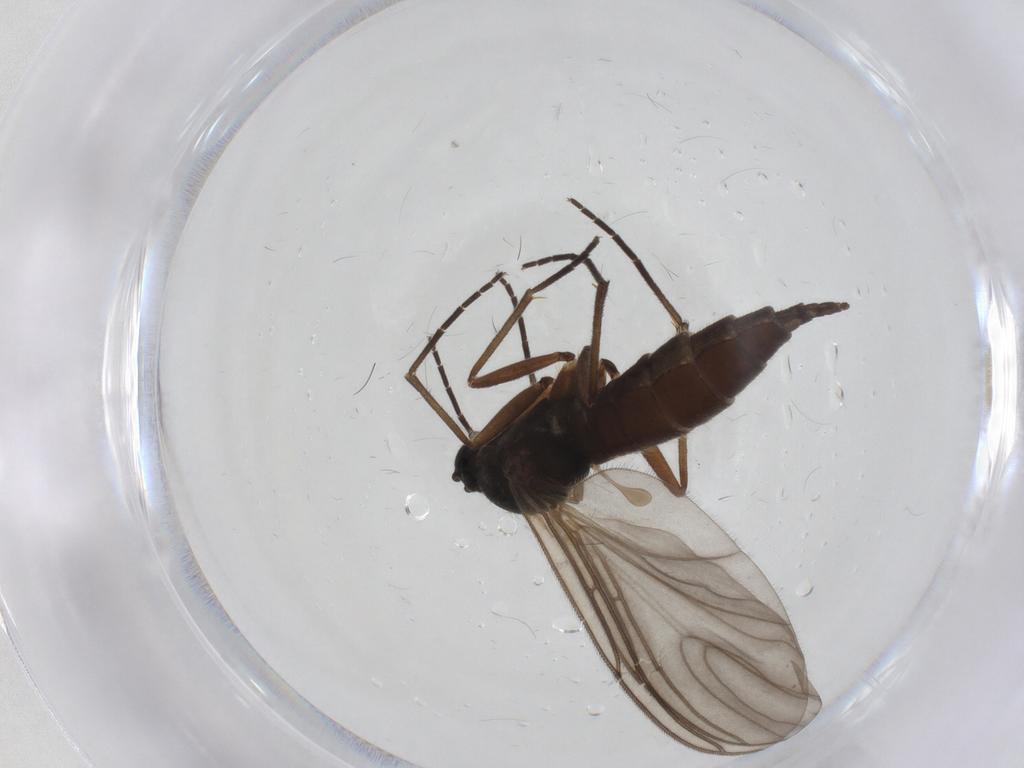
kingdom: Animalia
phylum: Arthropoda
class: Insecta
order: Diptera
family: Sciaridae
